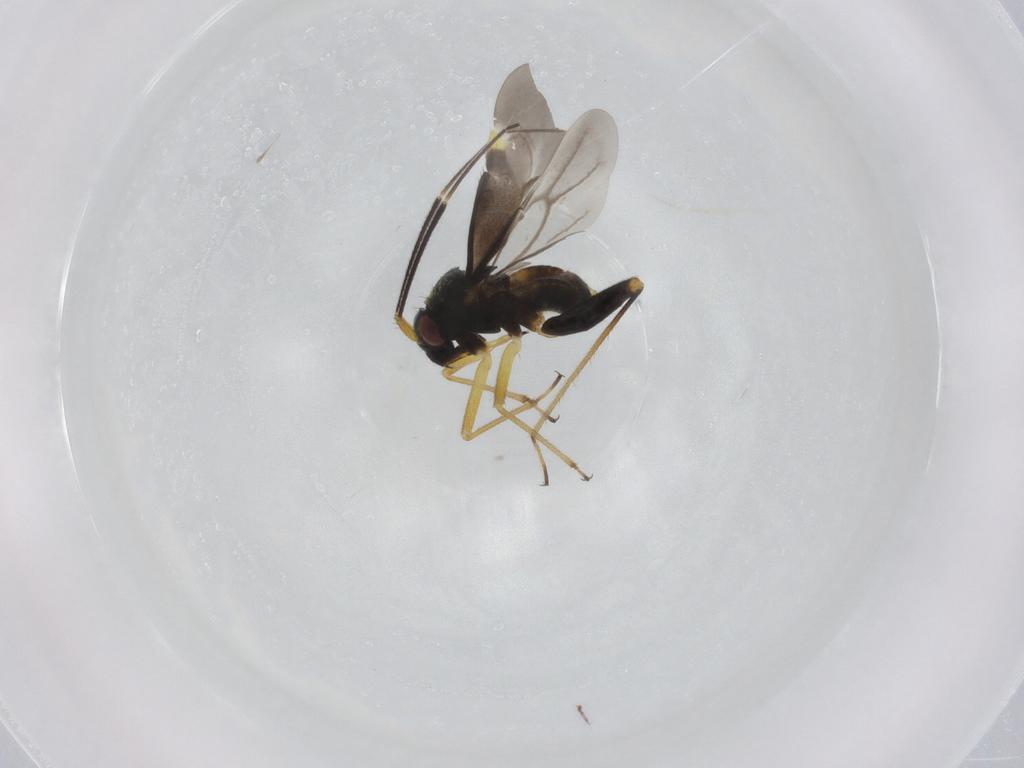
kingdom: Animalia
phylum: Arthropoda
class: Insecta
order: Hemiptera
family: Miridae
